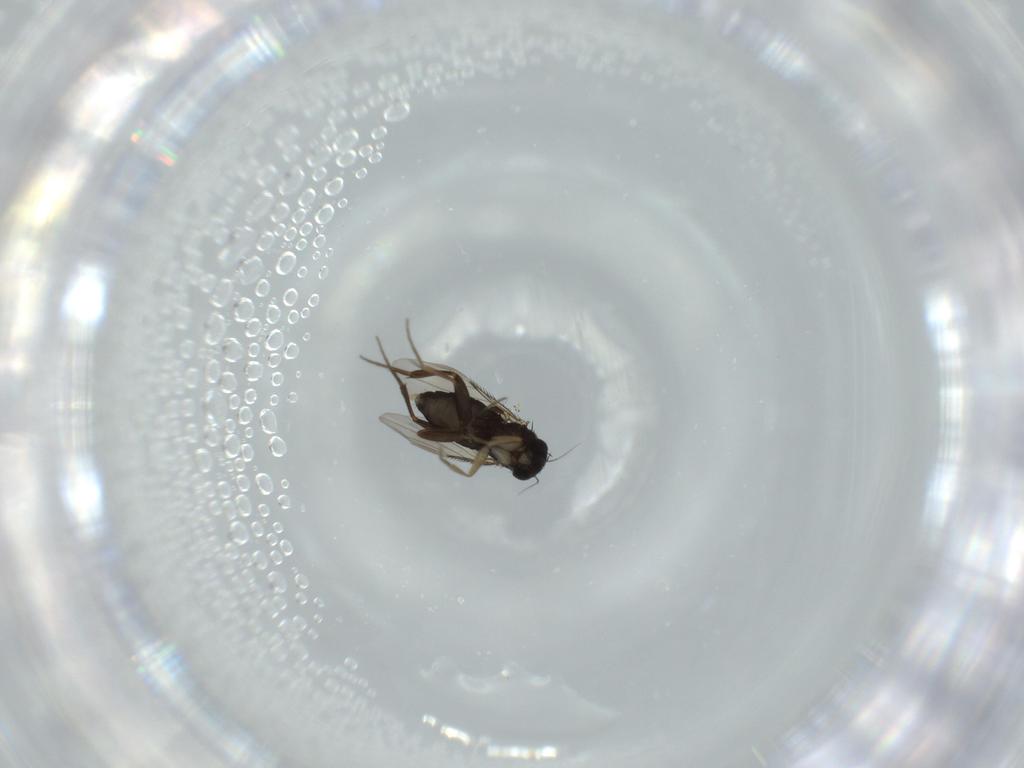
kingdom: Animalia
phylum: Arthropoda
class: Insecta
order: Diptera
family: Phoridae
